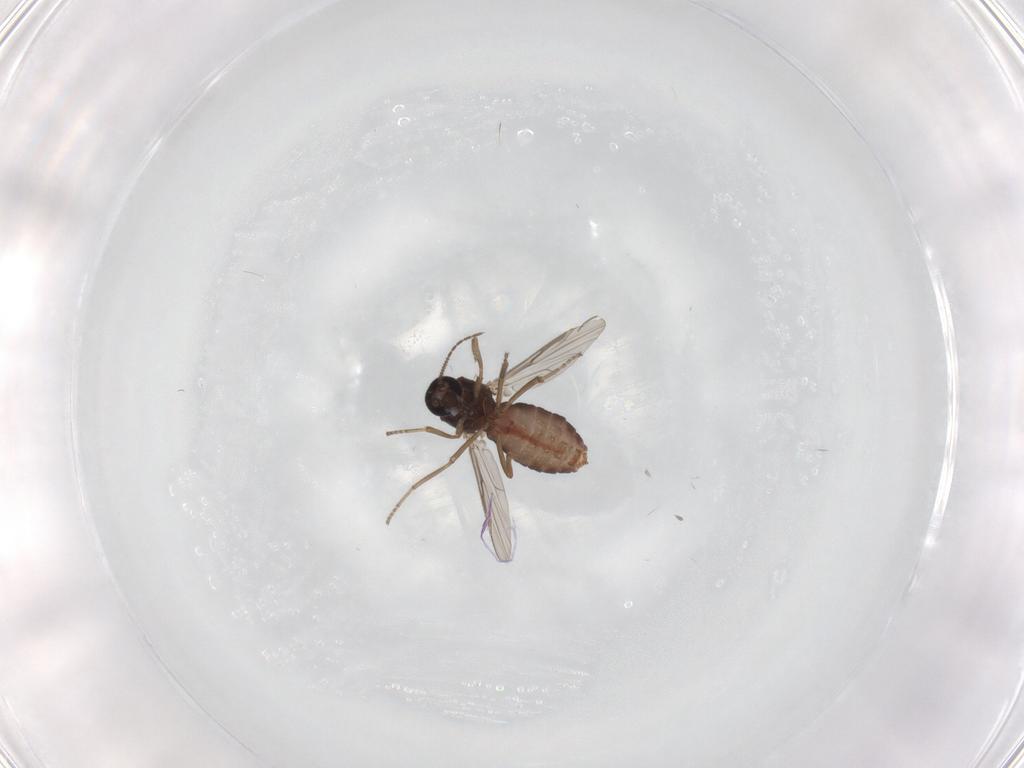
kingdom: Animalia
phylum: Arthropoda
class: Insecta
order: Diptera
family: Ceratopogonidae
